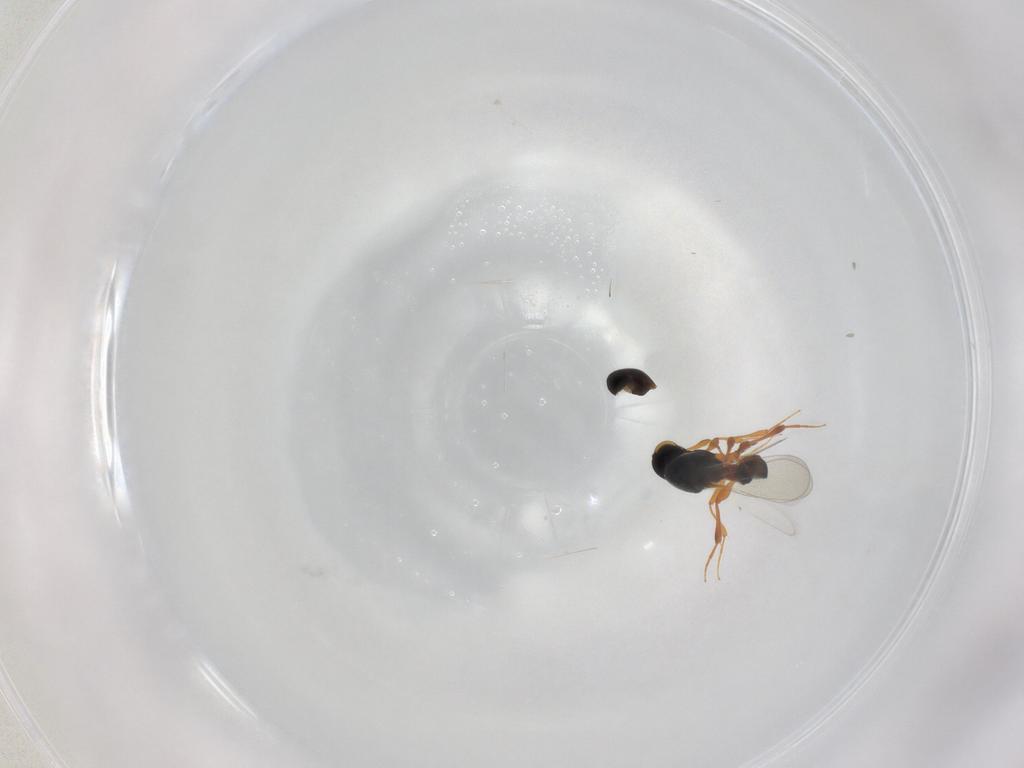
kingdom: Animalia
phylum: Arthropoda
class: Insecta
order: Hymenoptera
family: Platygastridae
